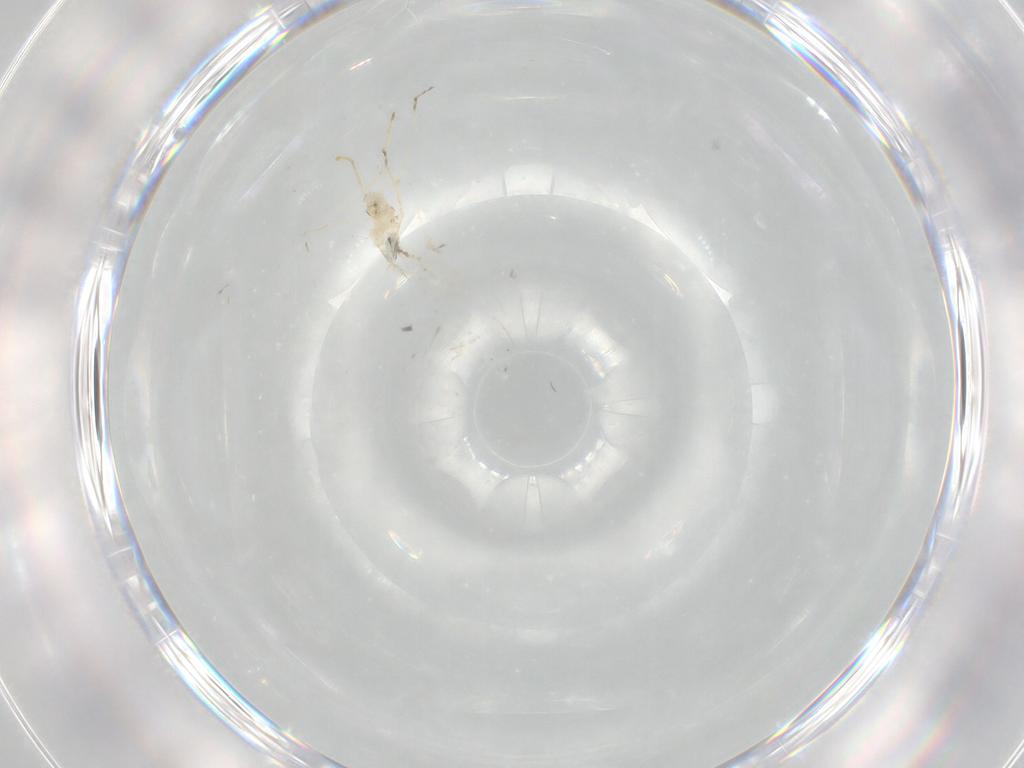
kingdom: Animalia
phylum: Arthropoda
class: Insecta
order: Diptera
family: Cecidomyiidae
